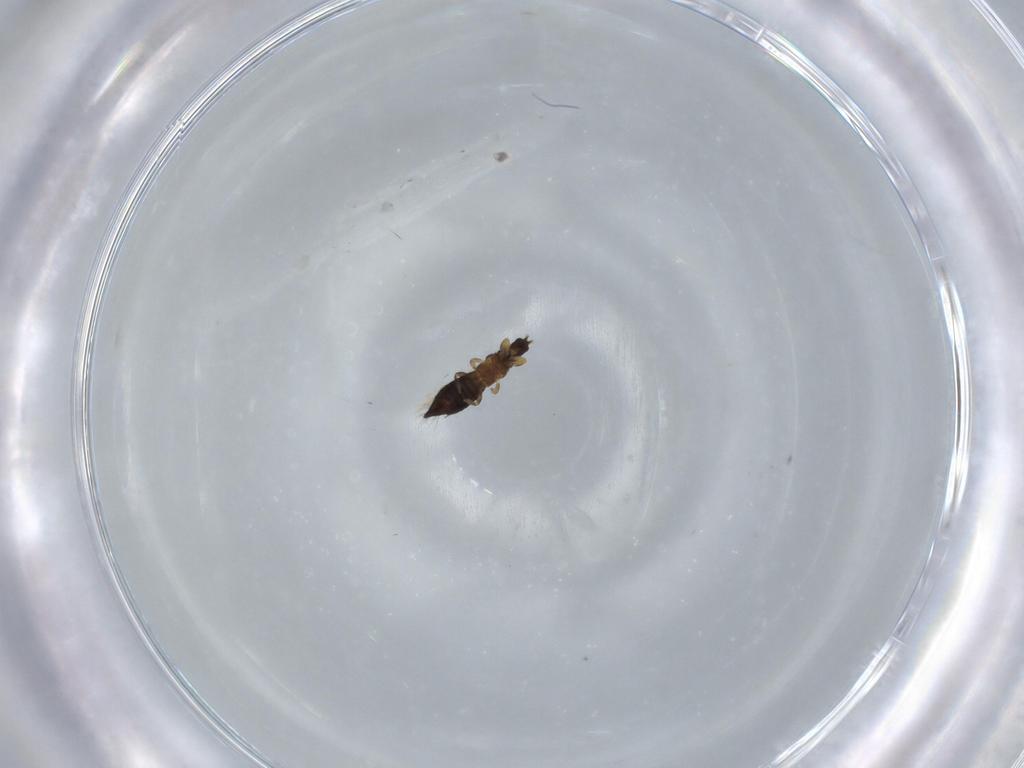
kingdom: Animalia
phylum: Arthropoda
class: Insecta
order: Thysanoptera
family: Thripidae
